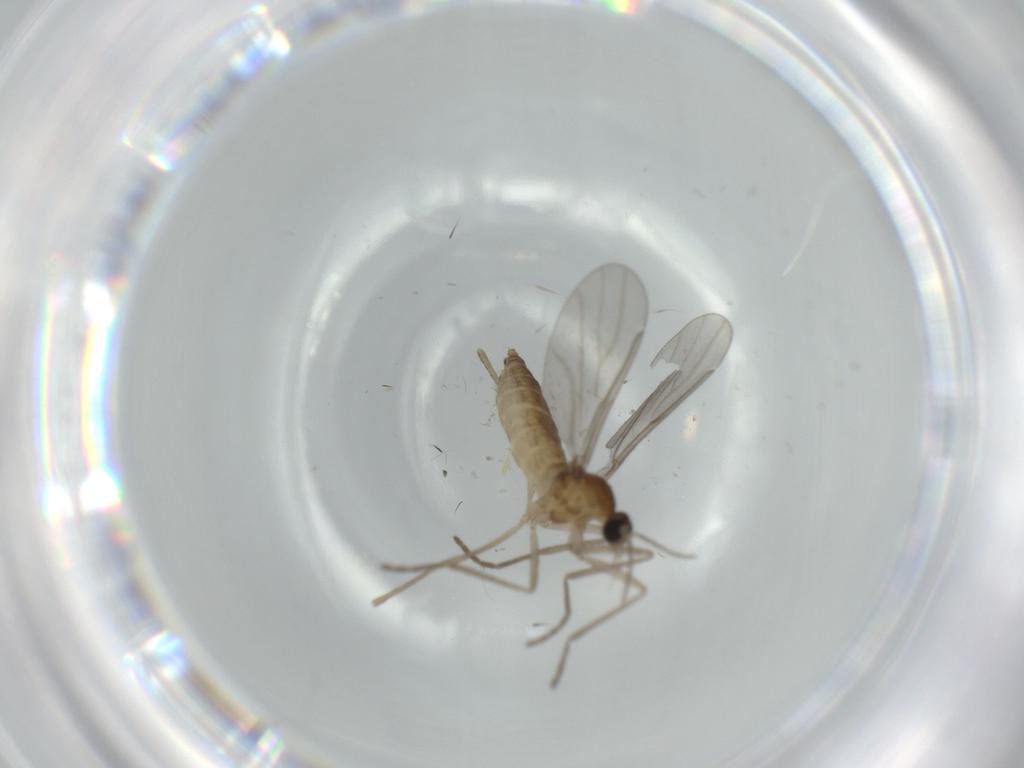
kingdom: Animalia
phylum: Arthropoda
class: Insecta
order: Diptera
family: Cecidomyiidae
